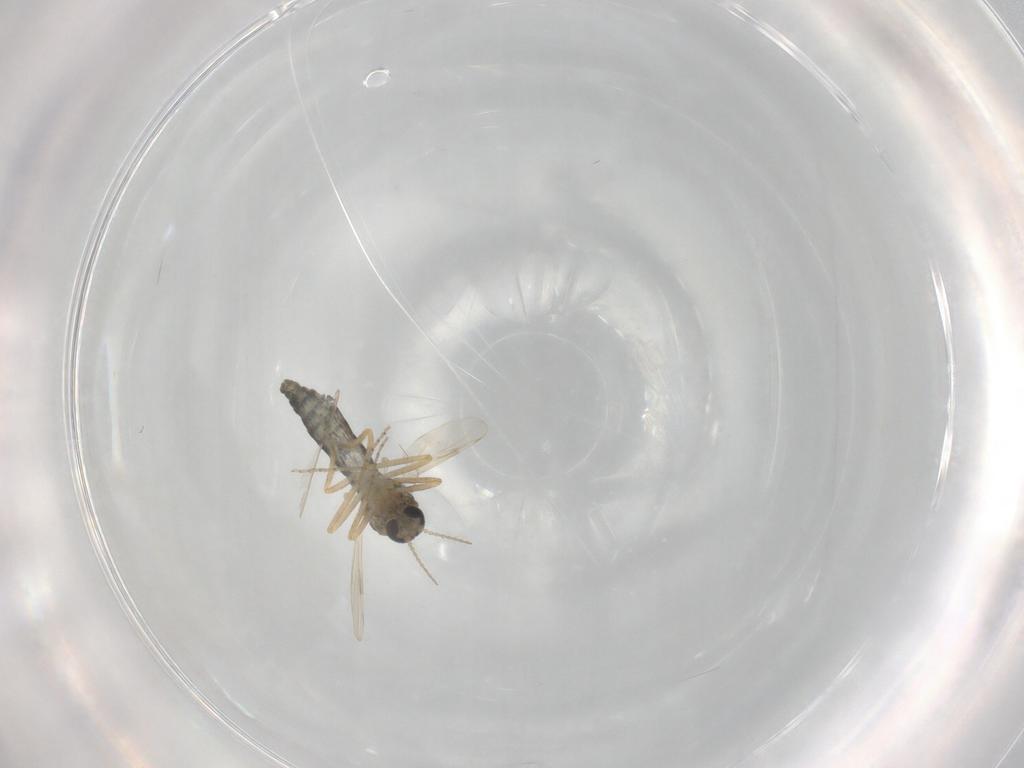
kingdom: Animalia
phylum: Arthropoda
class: Insecta
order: Diptera
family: Ceratopogonidae
